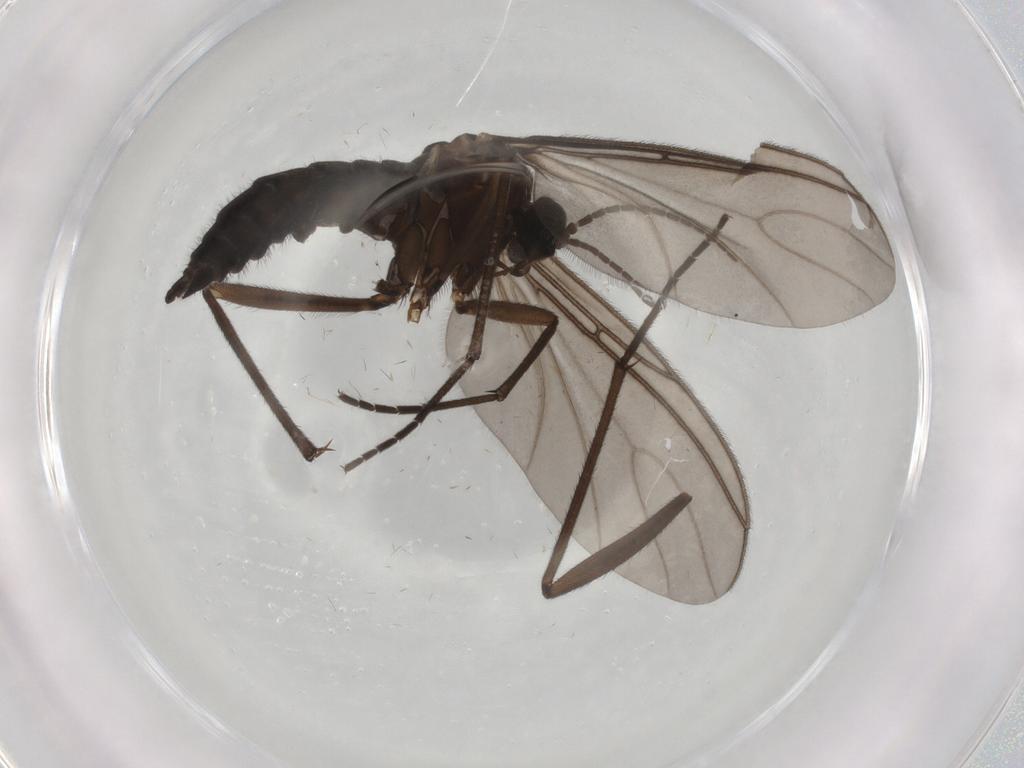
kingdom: Animalia
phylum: Arthropoda
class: Insecta
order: Diptera
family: Sciaridae
